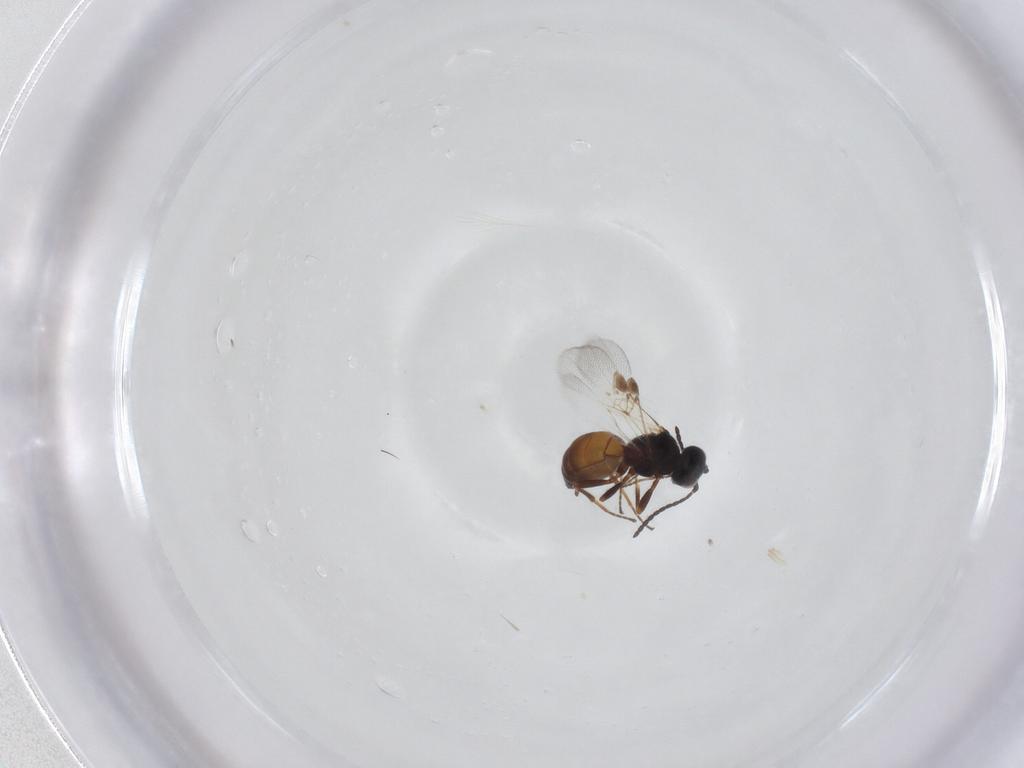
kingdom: Animalia
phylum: Arthropoda
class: Insecta
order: Hymenoptera
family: Braconidae
